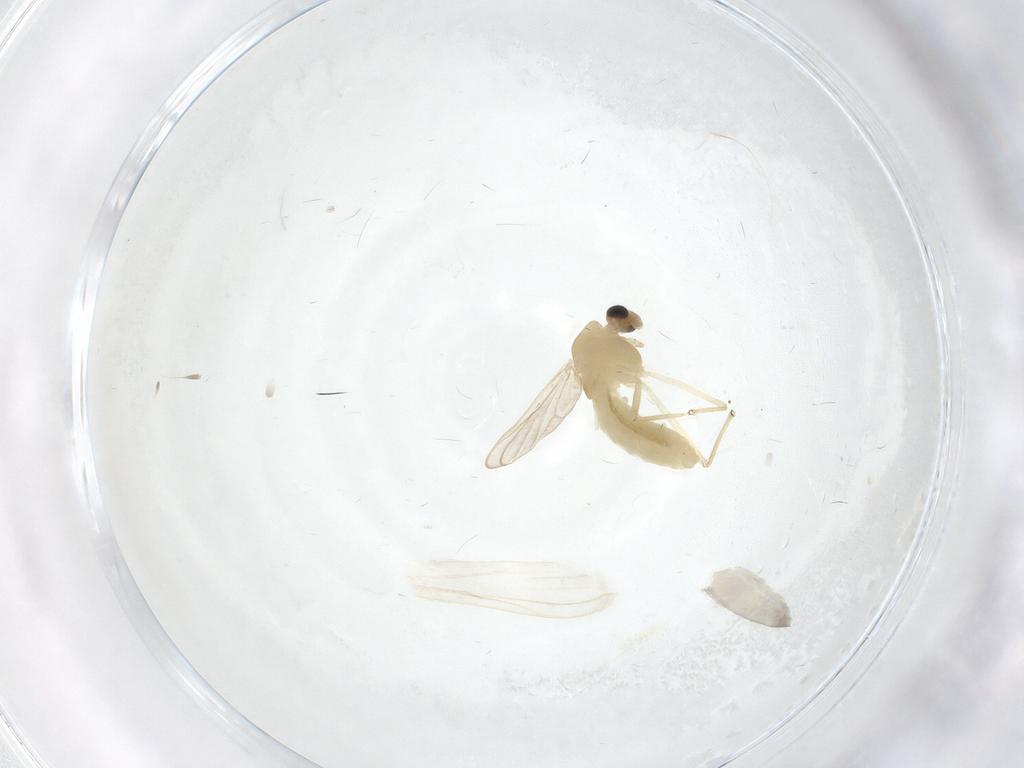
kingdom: Animalia
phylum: Arthropoda
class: Insecta
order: Diptera
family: Chironomidae
